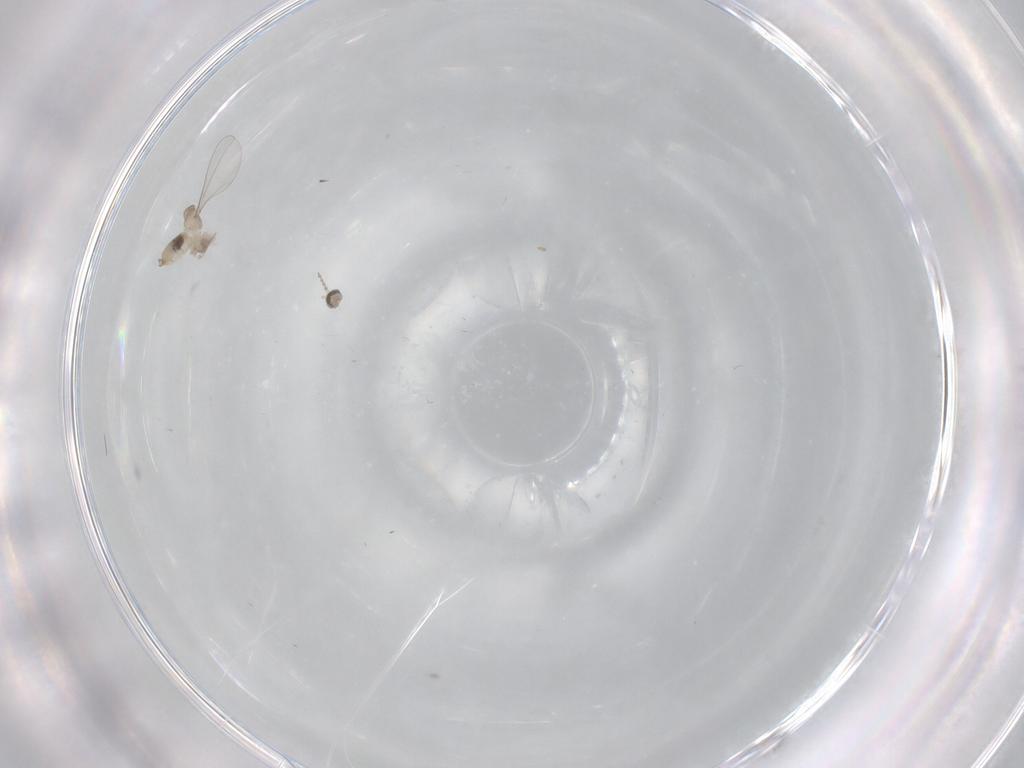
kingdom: Animalia
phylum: Arthropoda
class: Insecta
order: Diptera
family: Cecidomyiidae
